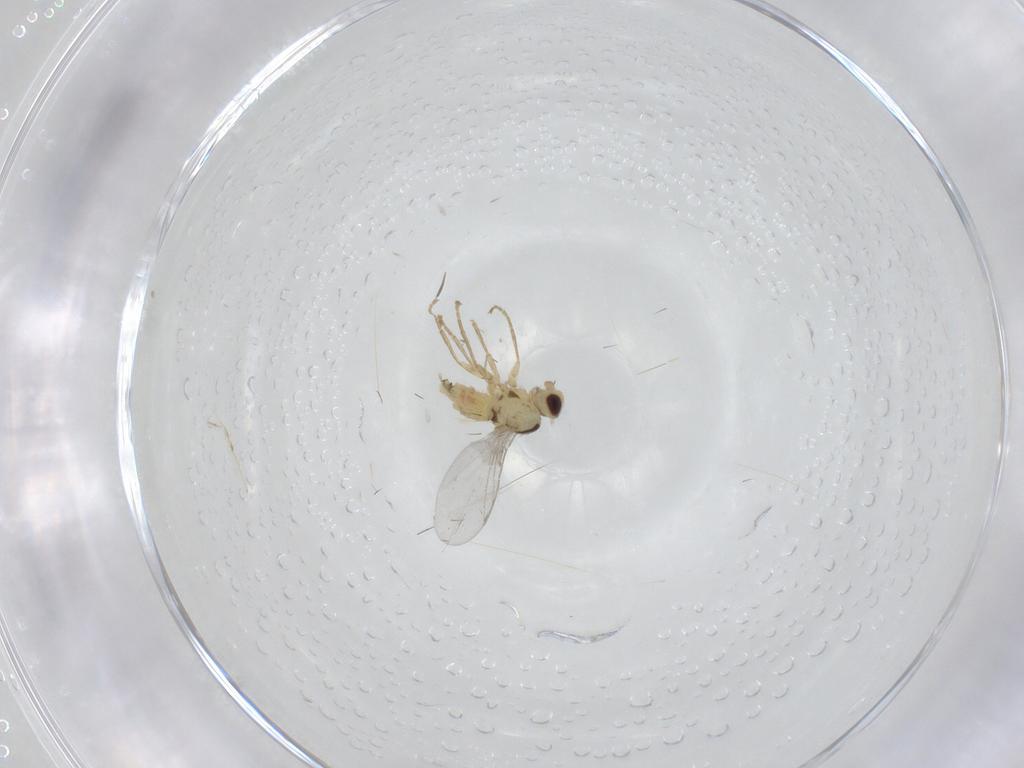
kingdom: Animalia
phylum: Arthropoda
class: Insecta
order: Diptera
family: Agromyzidae
